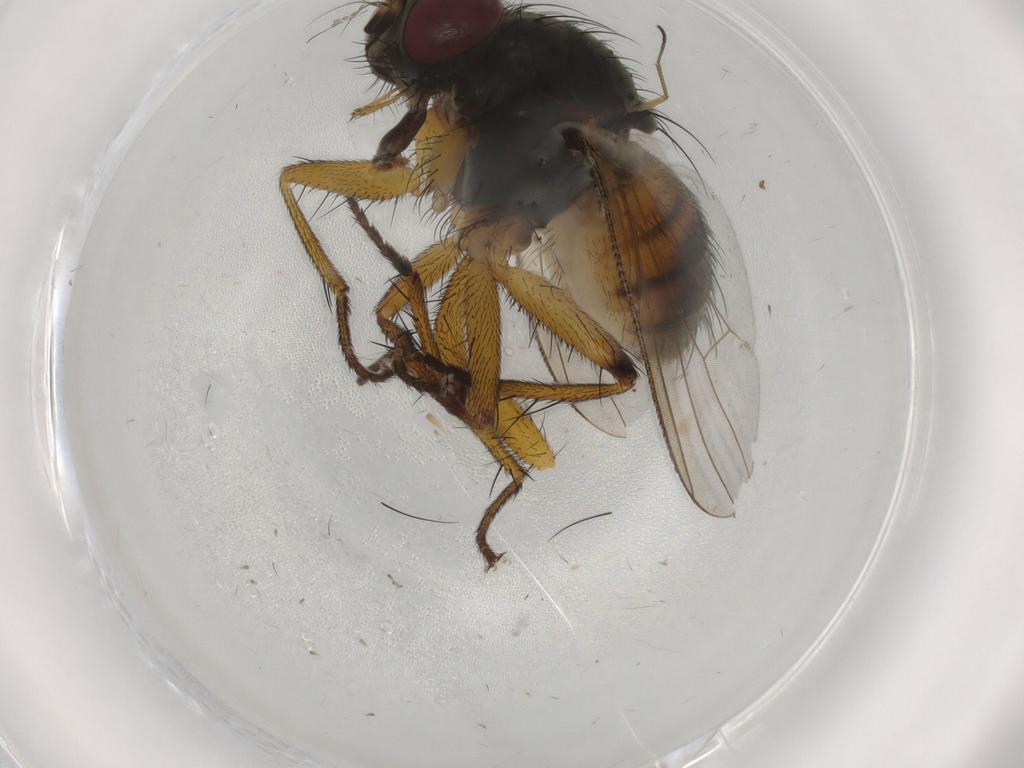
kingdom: Animalia
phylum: Arthropoda
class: Insecta
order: Diptera
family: Muscidae
